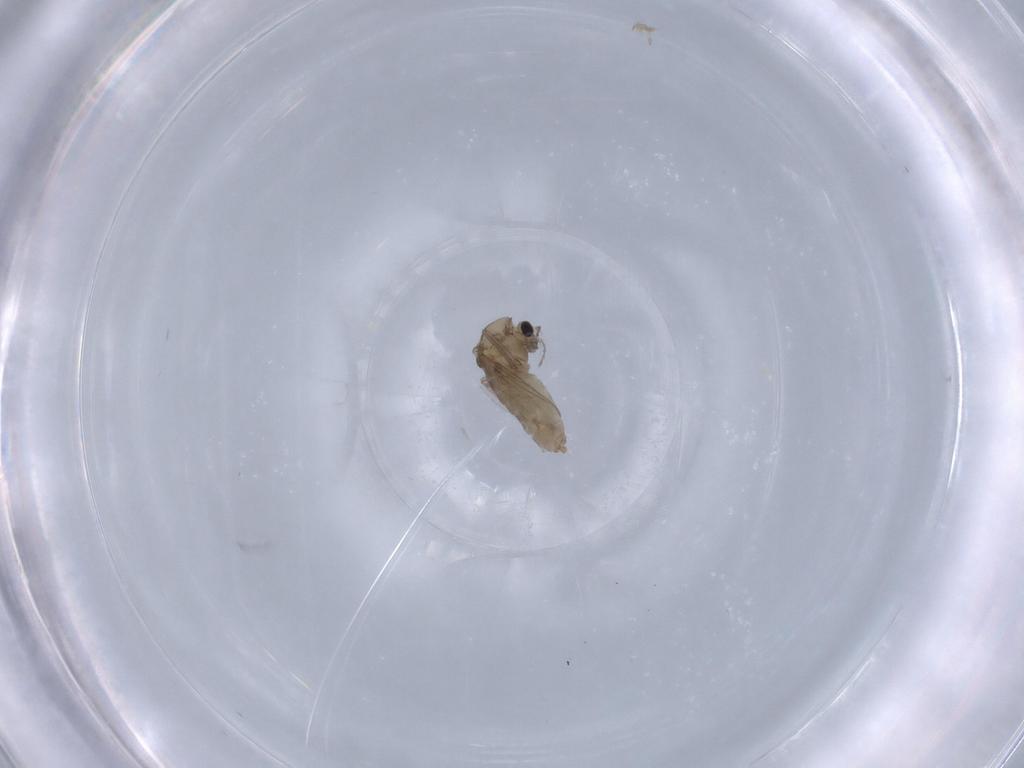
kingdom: Animalia
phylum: Arthropoda
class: Insecta
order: Diptera
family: Chironomidae
